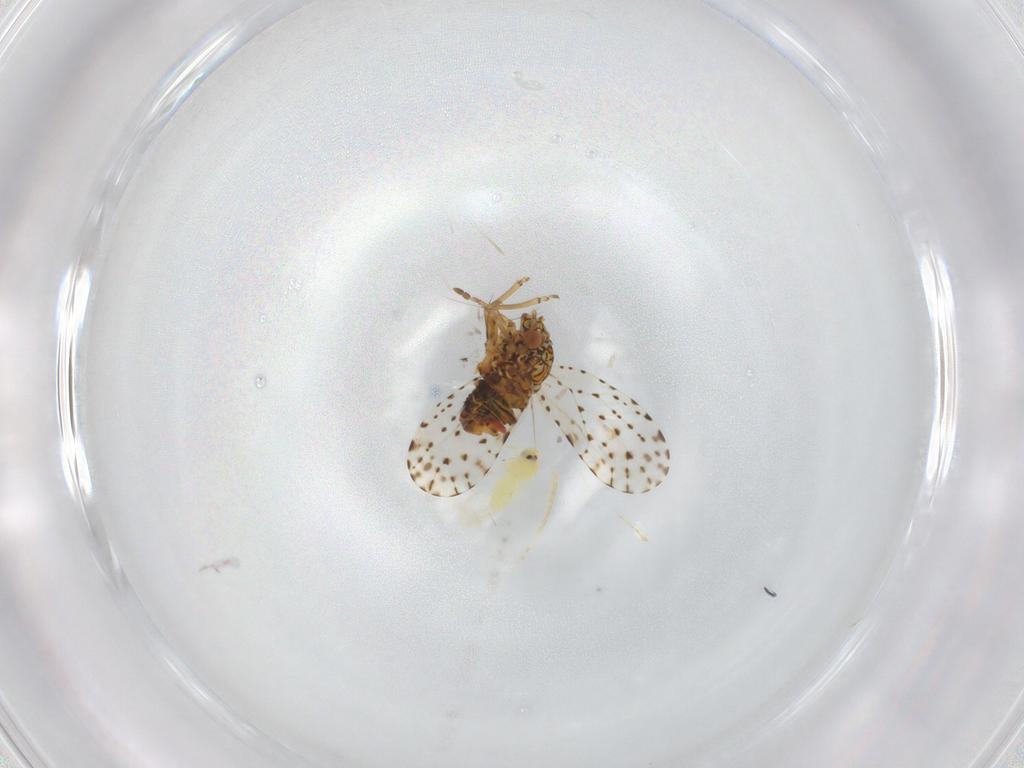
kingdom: Animalia
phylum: Arthropoda
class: Insecta
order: Hemiptera
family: Aleyrodidae
